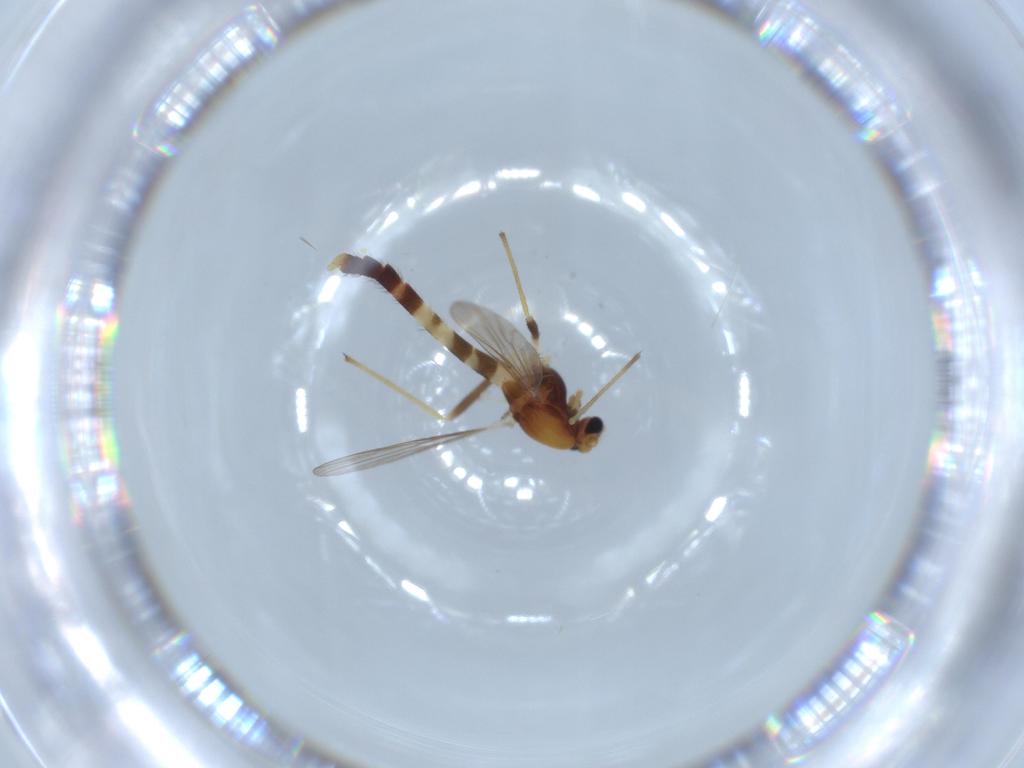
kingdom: Animalia
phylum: Arthropoda
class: Insecta
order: Diptera
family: Chironomidae
